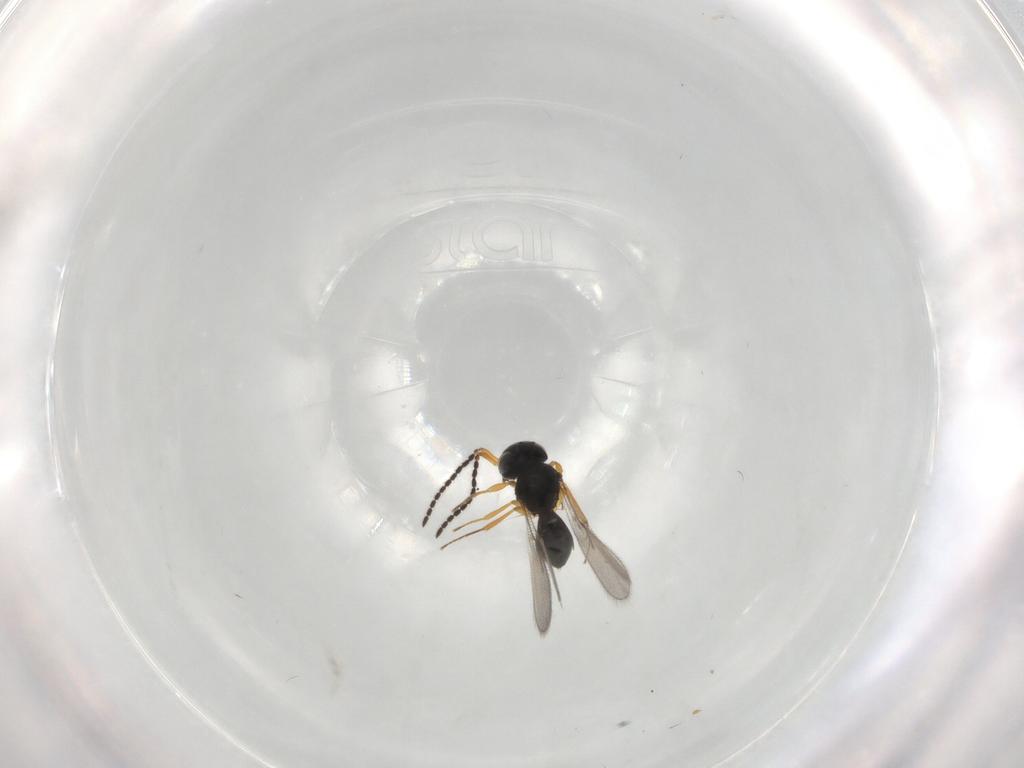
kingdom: Animalia
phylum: Arthropoda
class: Insecta
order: Hymenoptera
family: Scelionidae
